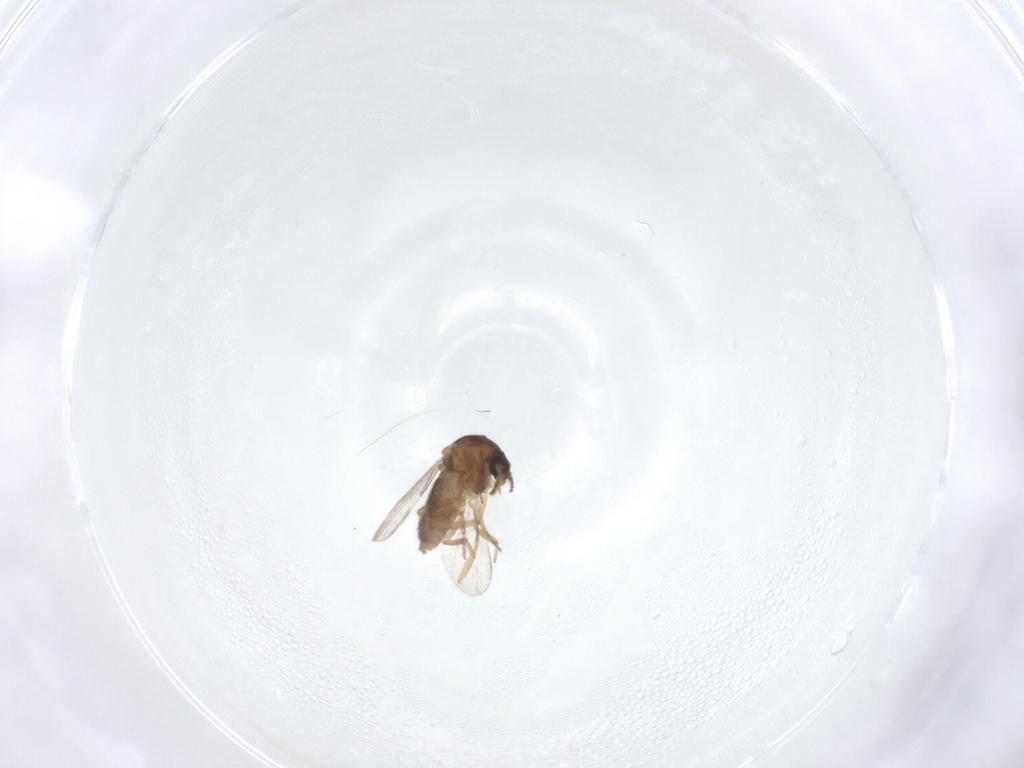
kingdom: Animalia
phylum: Arthropoda
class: Insecta
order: Diptera
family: Ceratopogonidae
